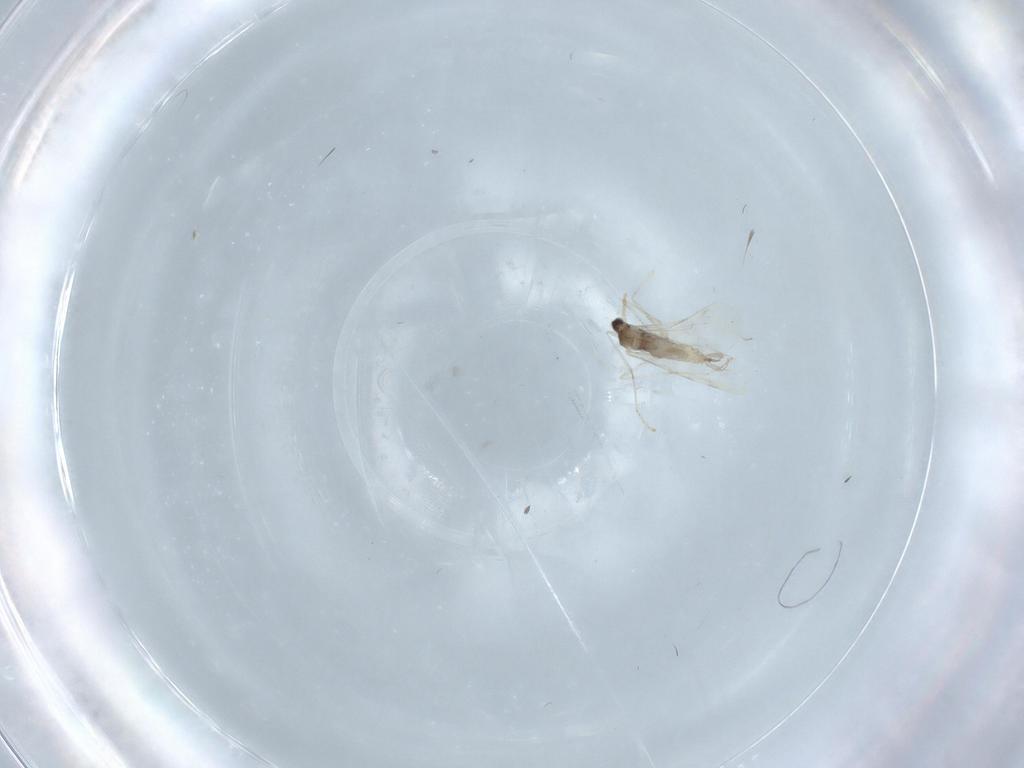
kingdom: Animalia
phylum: Arthropoda
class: Insecta
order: Diptera
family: Cecidomyiidae
